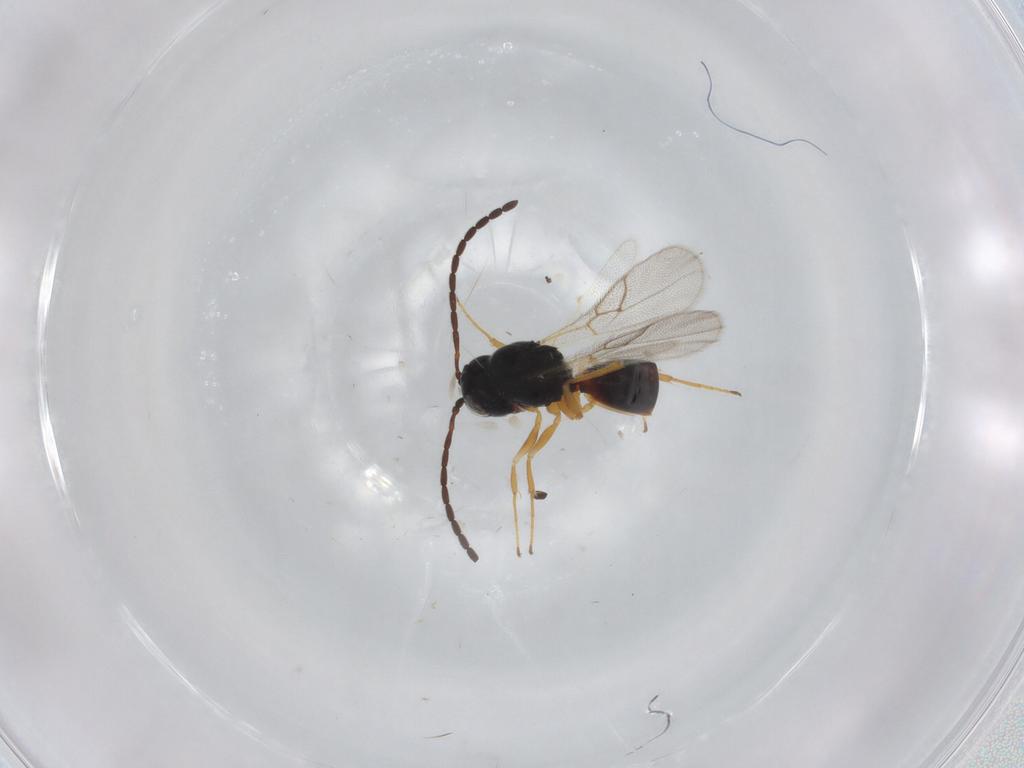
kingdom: Animalia
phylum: Arthropoda
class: Insecta
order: Hymenoptera
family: Figitidae
